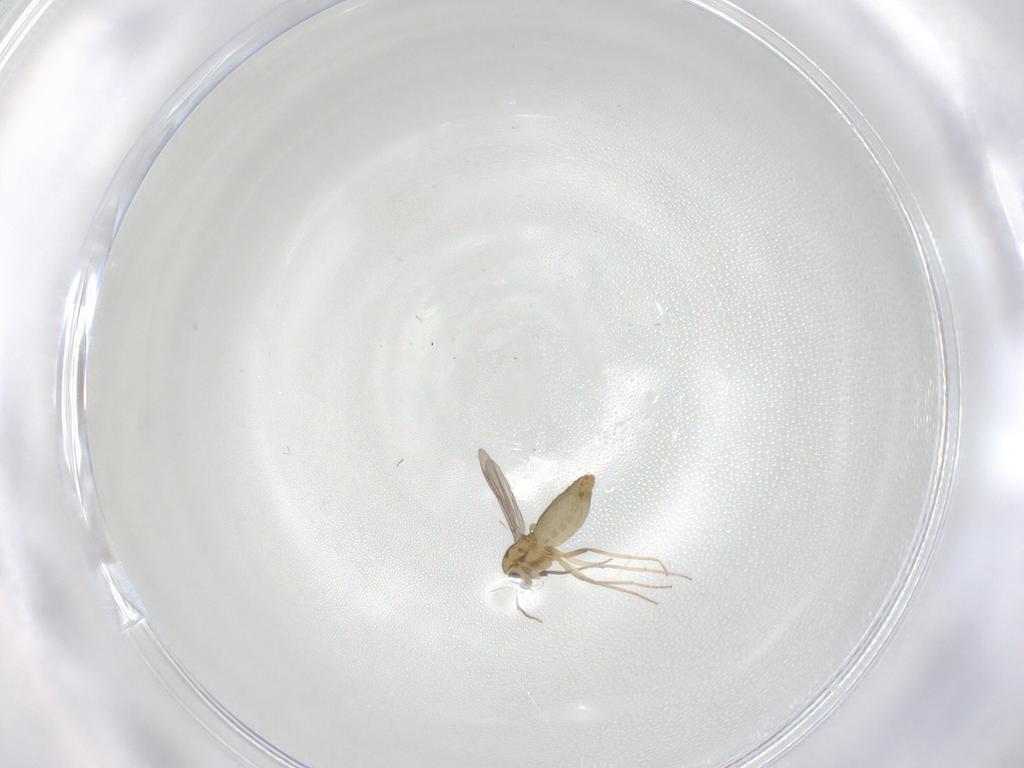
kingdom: Animalia
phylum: Arthropoda
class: Insecta
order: Diptera
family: Chironomidae
